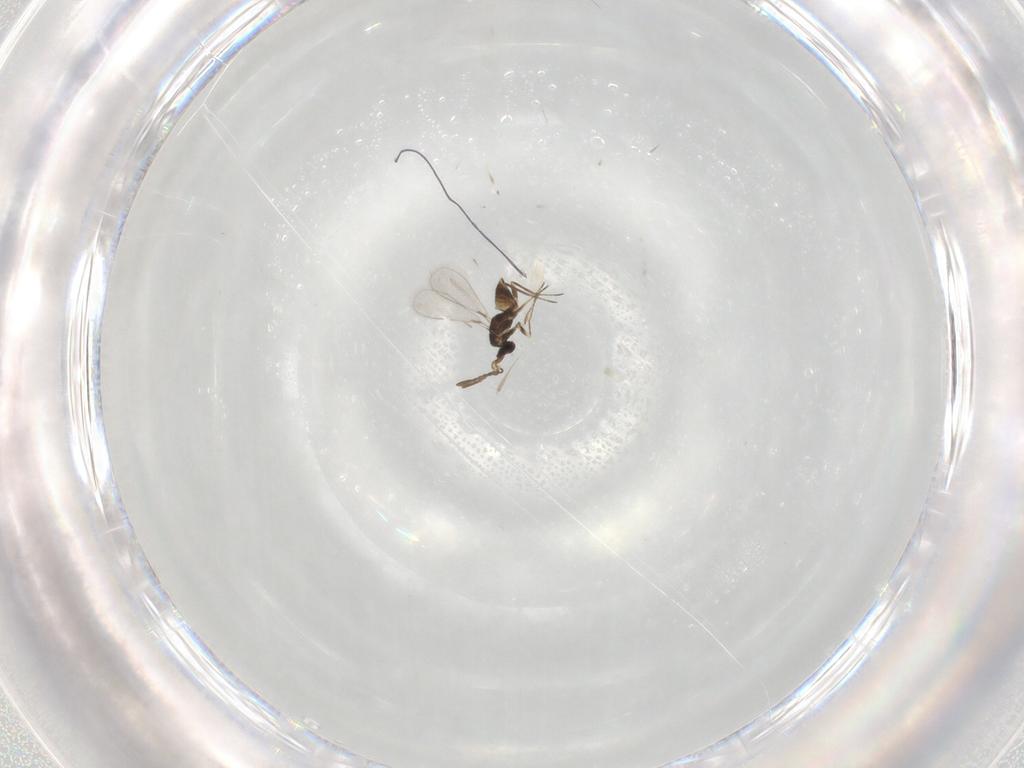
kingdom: Animalia
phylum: Arthropoda
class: Insecta
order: Hymenoptera
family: Mymaridae
